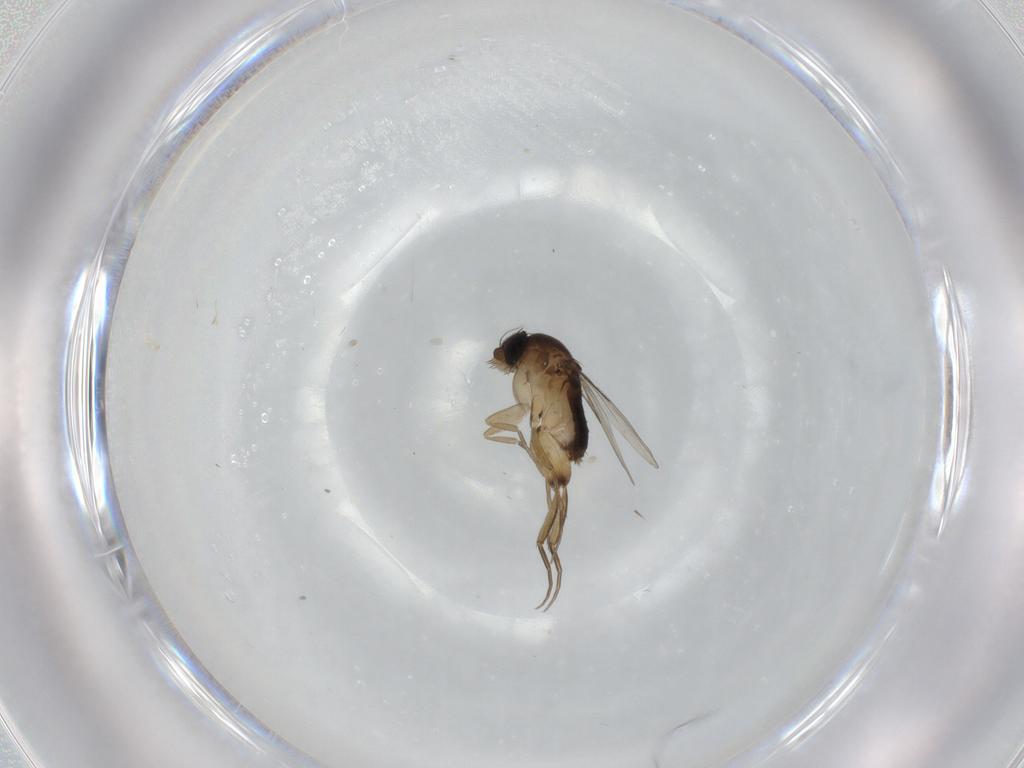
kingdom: Animalia
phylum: Arthropoda
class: Insecta
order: Diptera
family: Phoridae
